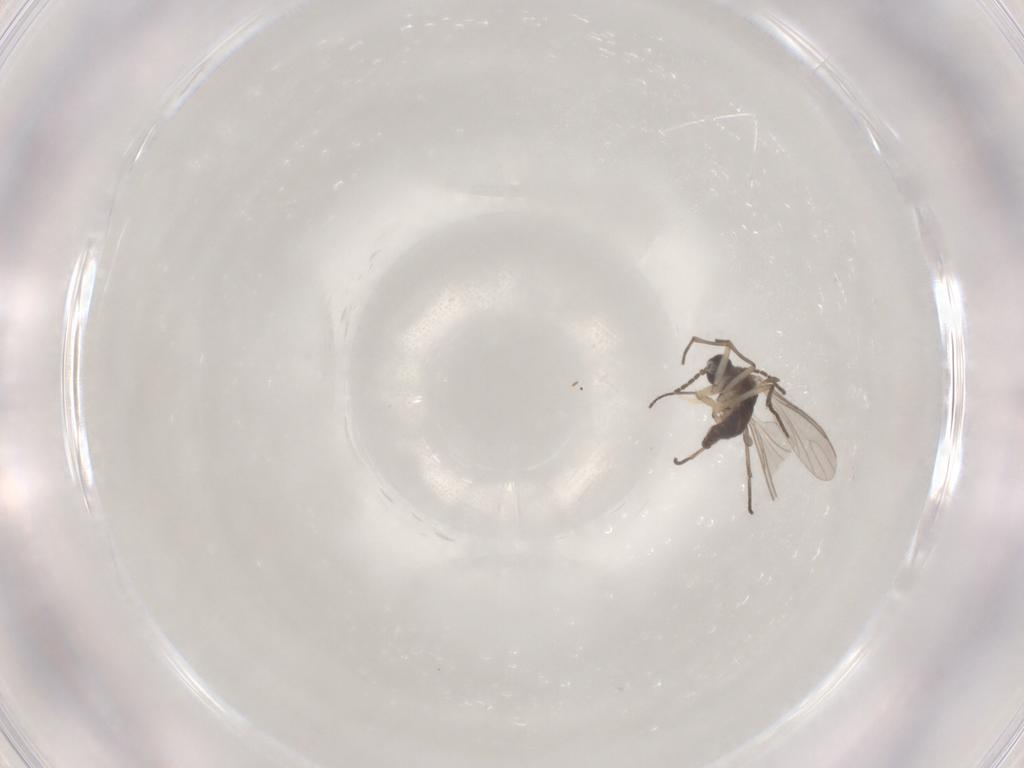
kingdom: Animalia
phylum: Arthropoda
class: Insecta
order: Diptera
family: Sciaridae
